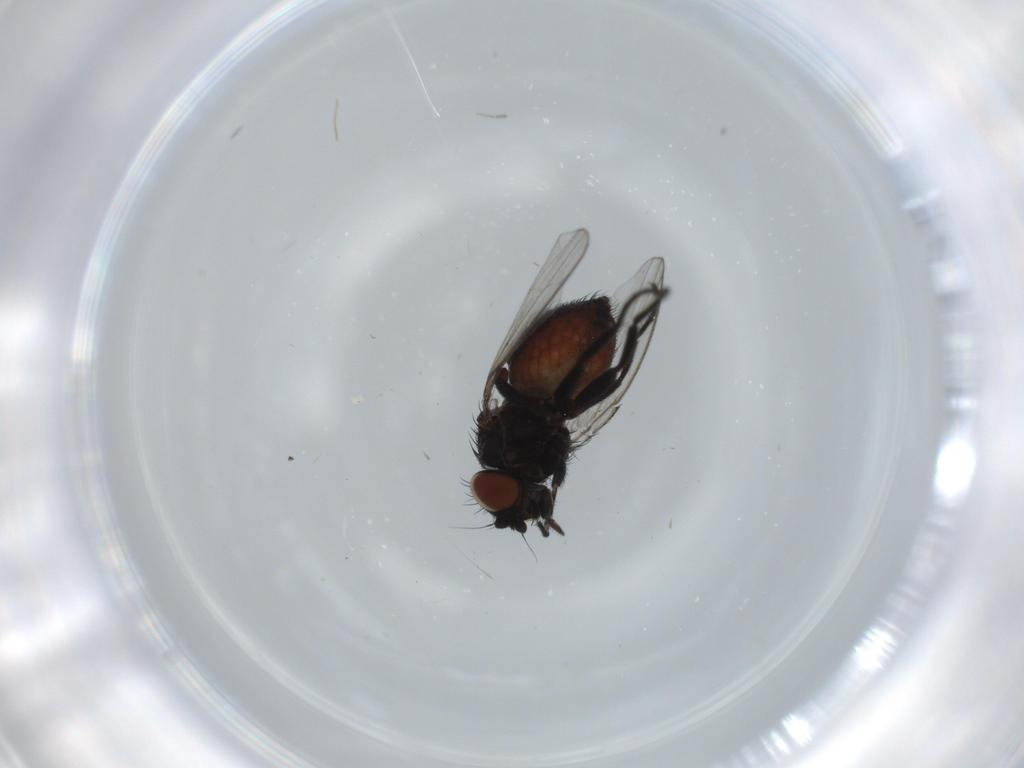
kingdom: Animalia
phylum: Arthropoda
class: Insecta
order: Diptera
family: Milichiidae
